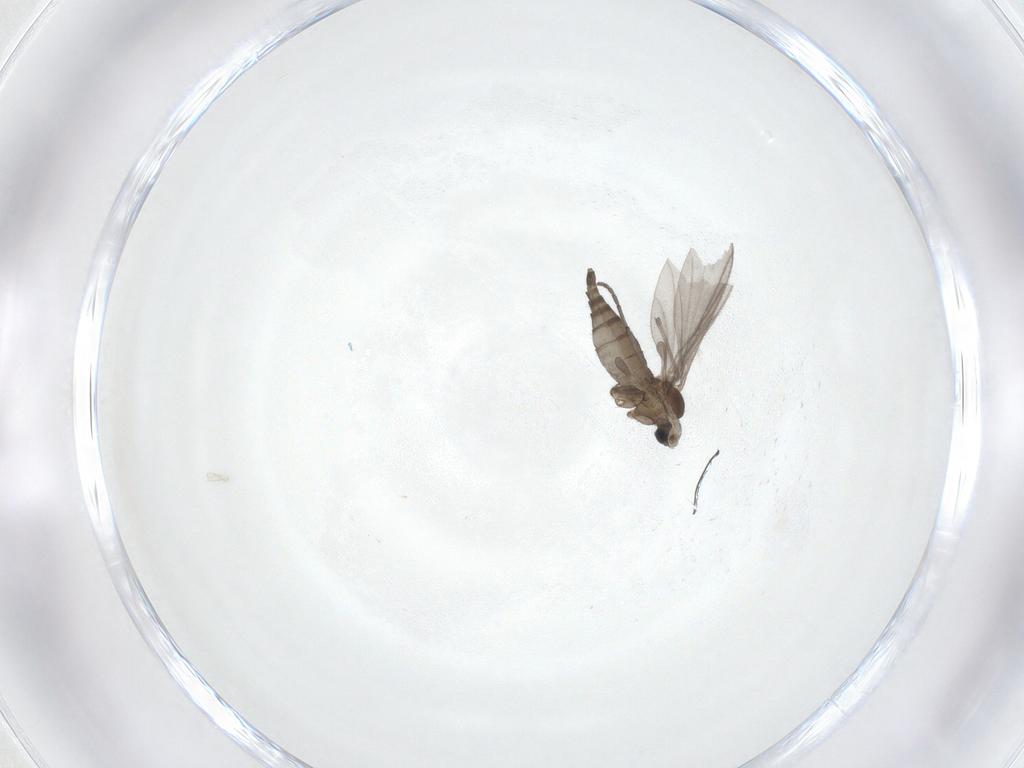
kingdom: Animalia
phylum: Arthropoda
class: Insecta
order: Diptera
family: Sciaridae
